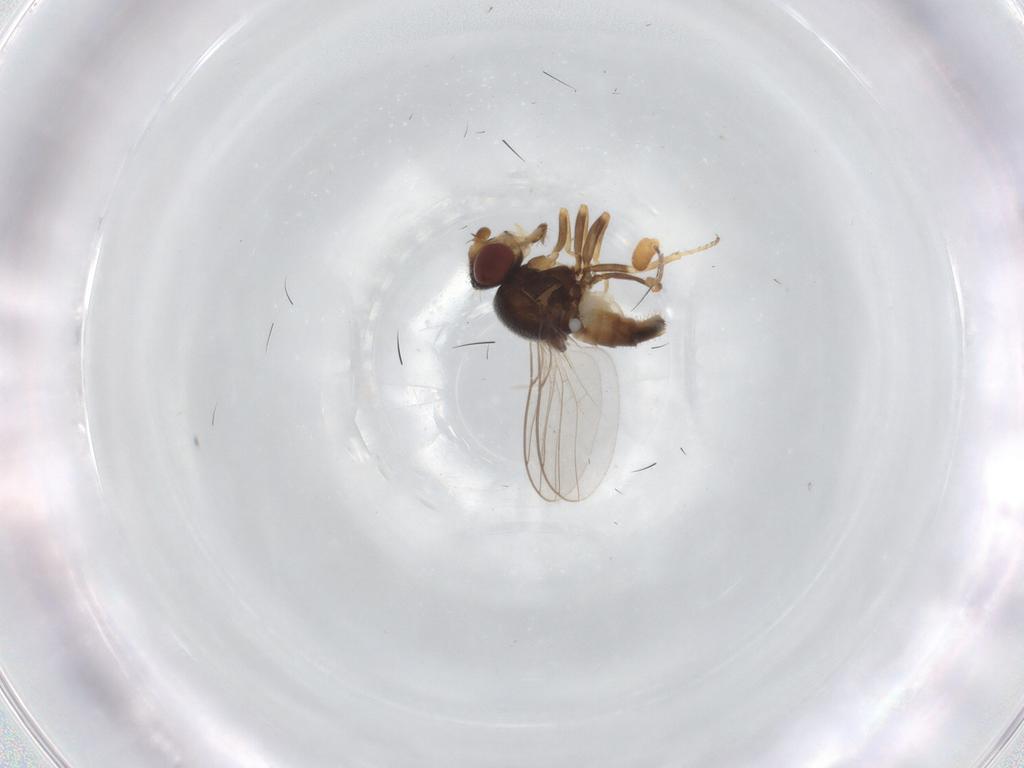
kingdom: Animalia
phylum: Arthropoda
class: Insecta
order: Diptera
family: Chloropidae
